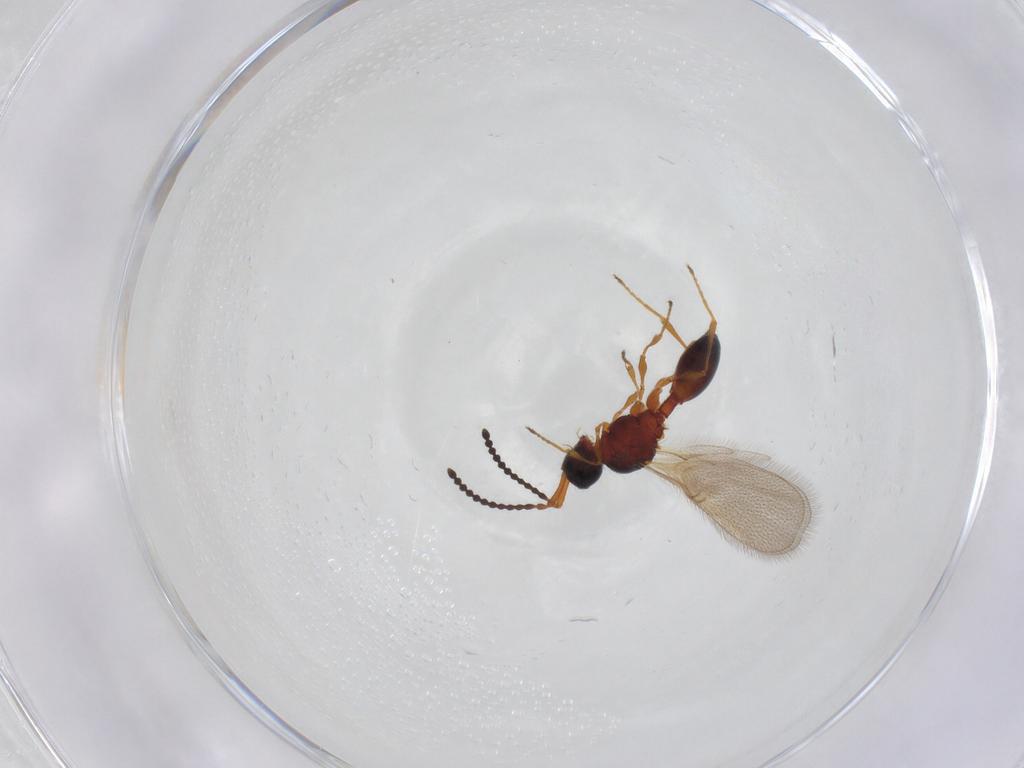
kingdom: Animalia
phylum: Arthropoda
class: Insecta
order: Hymenoptera
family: Diapriidae
